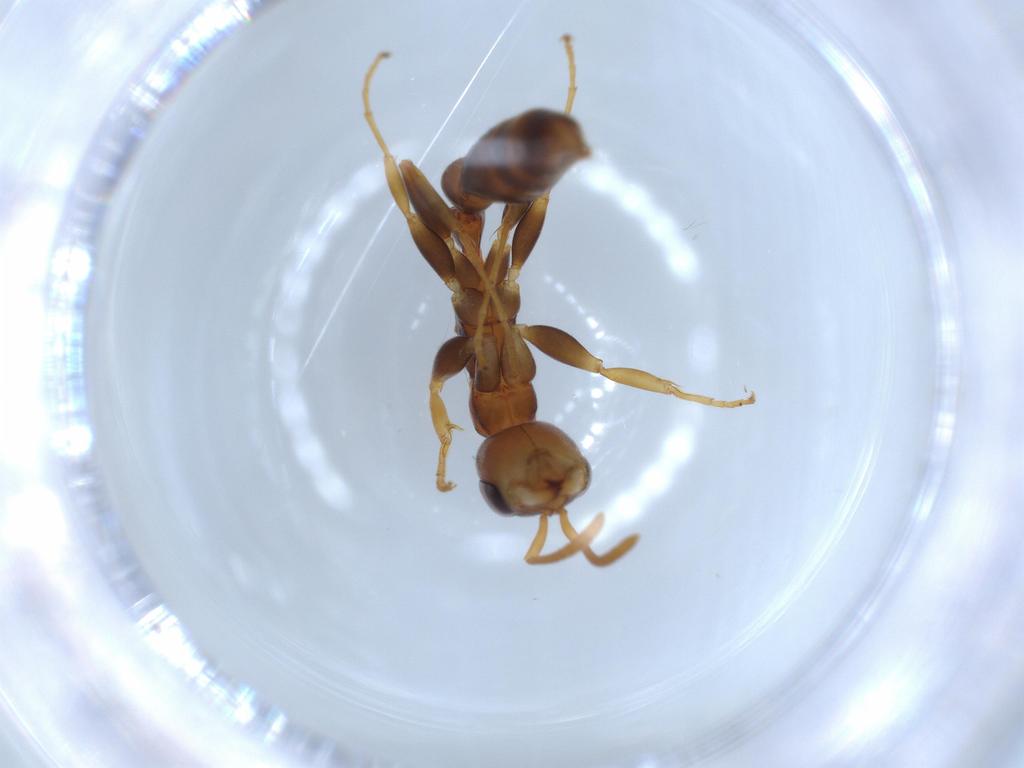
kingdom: Animalia
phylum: Arthropoda
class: Insecta
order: Hymenoptera
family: Formicidae
